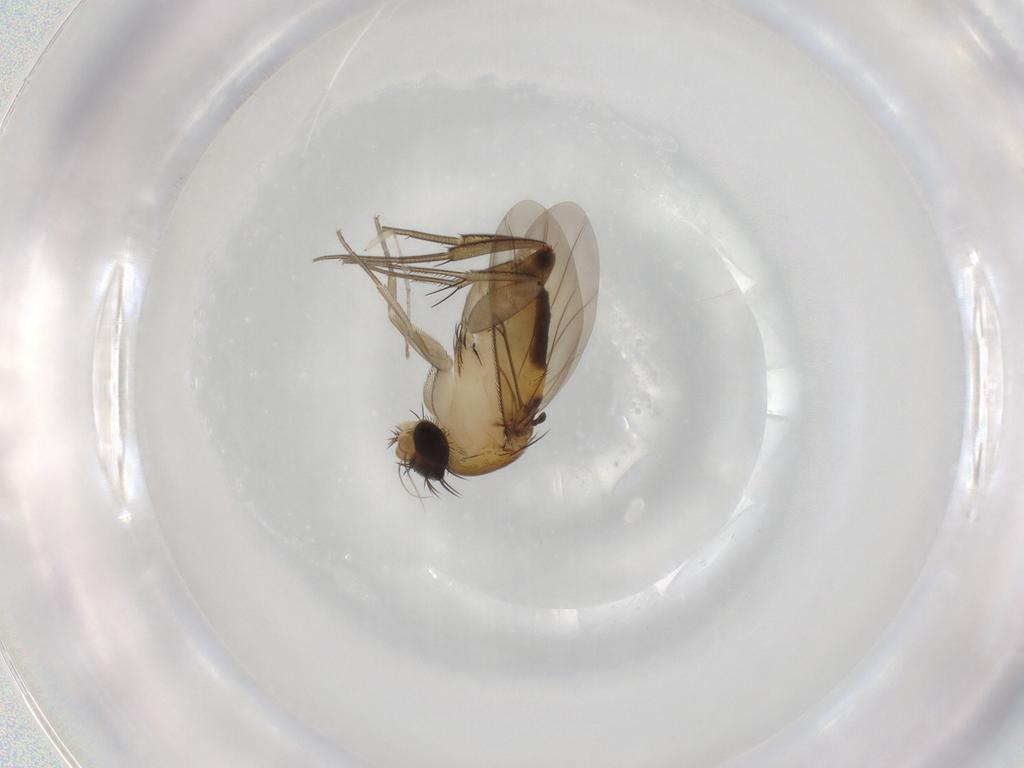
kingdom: Animalia
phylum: Arthropoda
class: Insecta
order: Diptera
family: Phoridae
